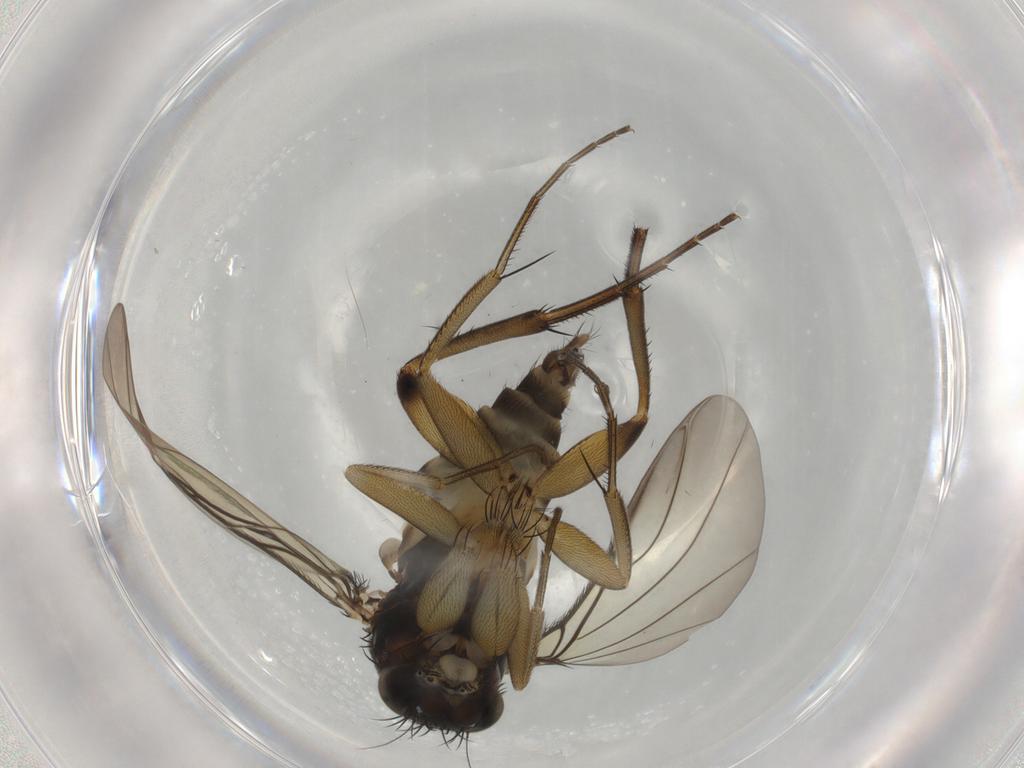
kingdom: Animalia
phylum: Arthropoda
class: Insecta
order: Diptera
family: Phoridae
